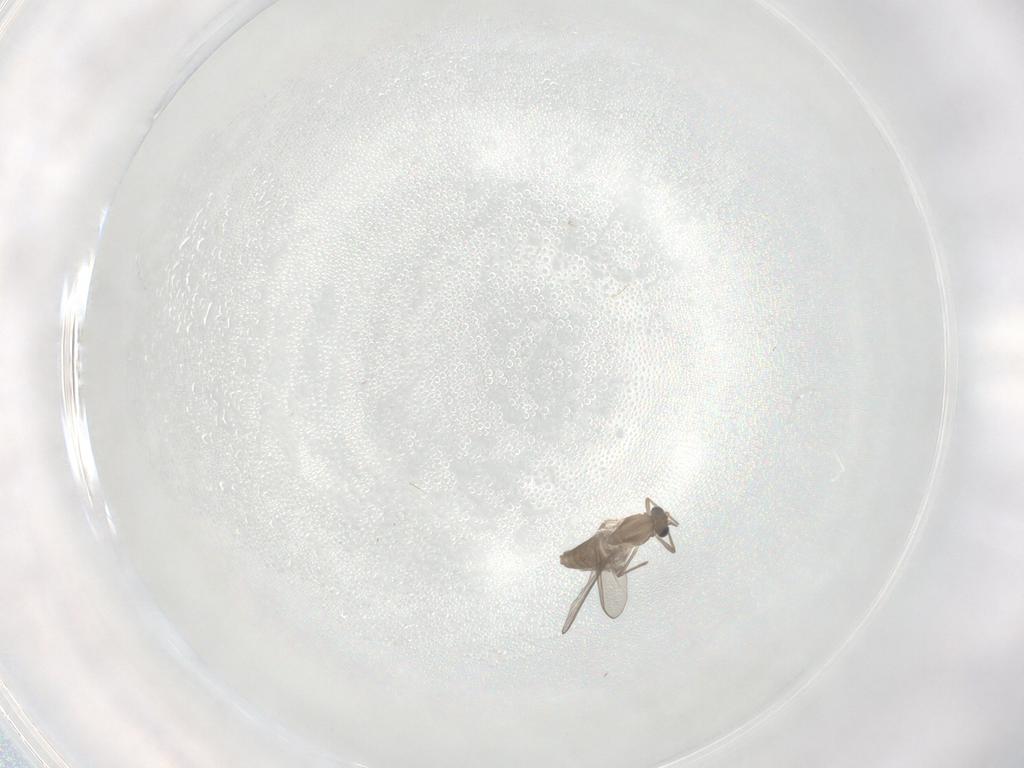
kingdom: Animalia
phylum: Arthropoda
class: Insecta
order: Diptera
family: Chironomidae
